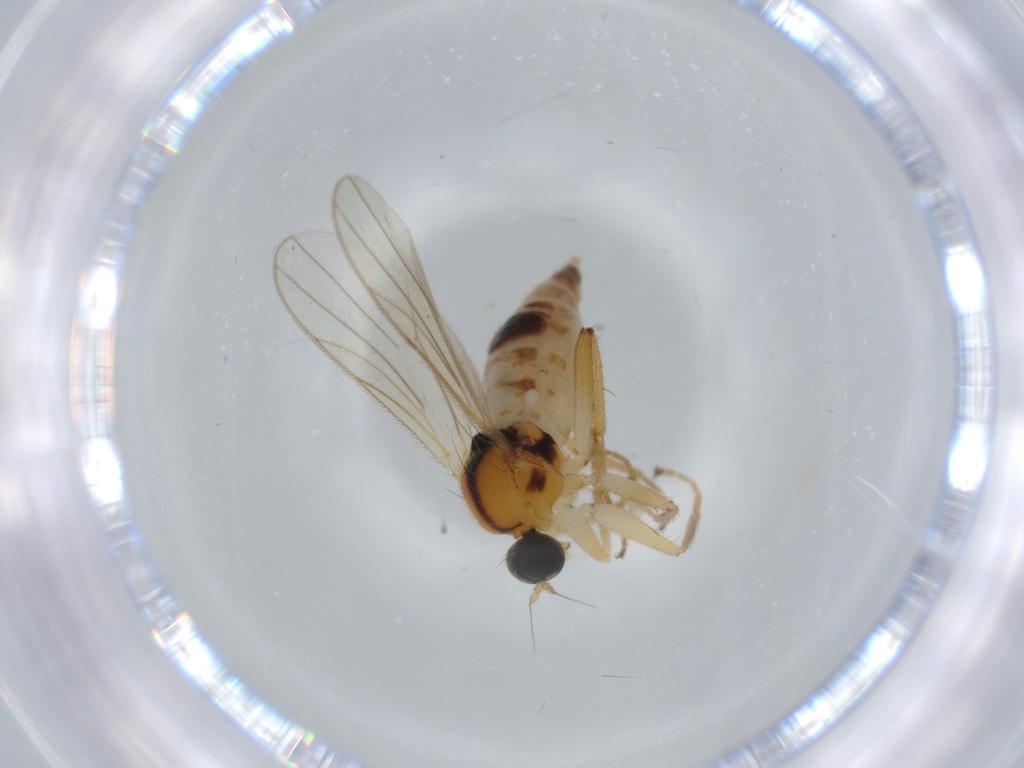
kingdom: Animalia
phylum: Arthropoda
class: Insecta
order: Diptera
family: Hybotidae
